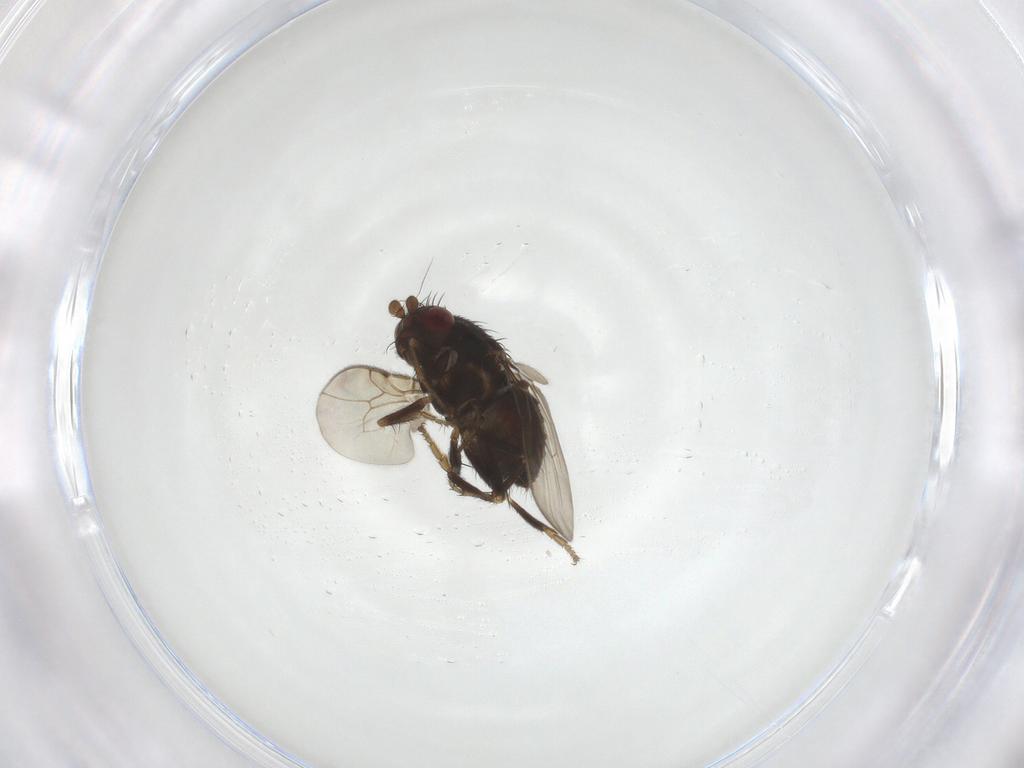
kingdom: Animalia
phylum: Arthropoda
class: Insecta
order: Diptera
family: Sphaeroceridae
